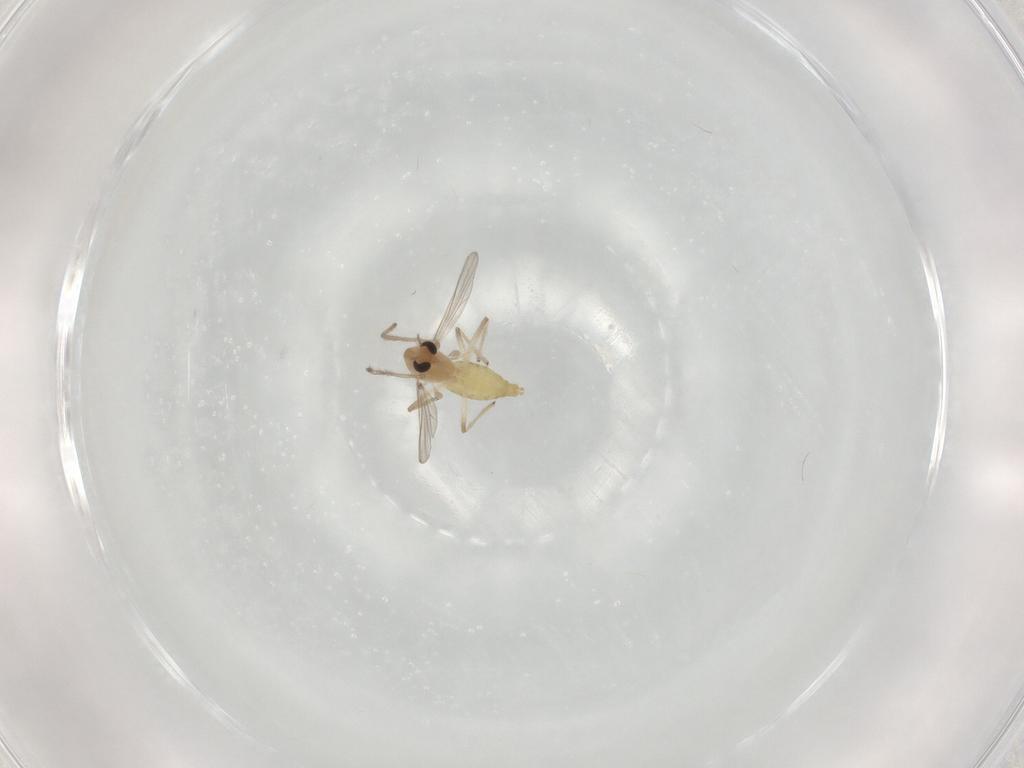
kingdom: Animalia
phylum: Arthropoda
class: Insecta
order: Diptera
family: Chironomidae
